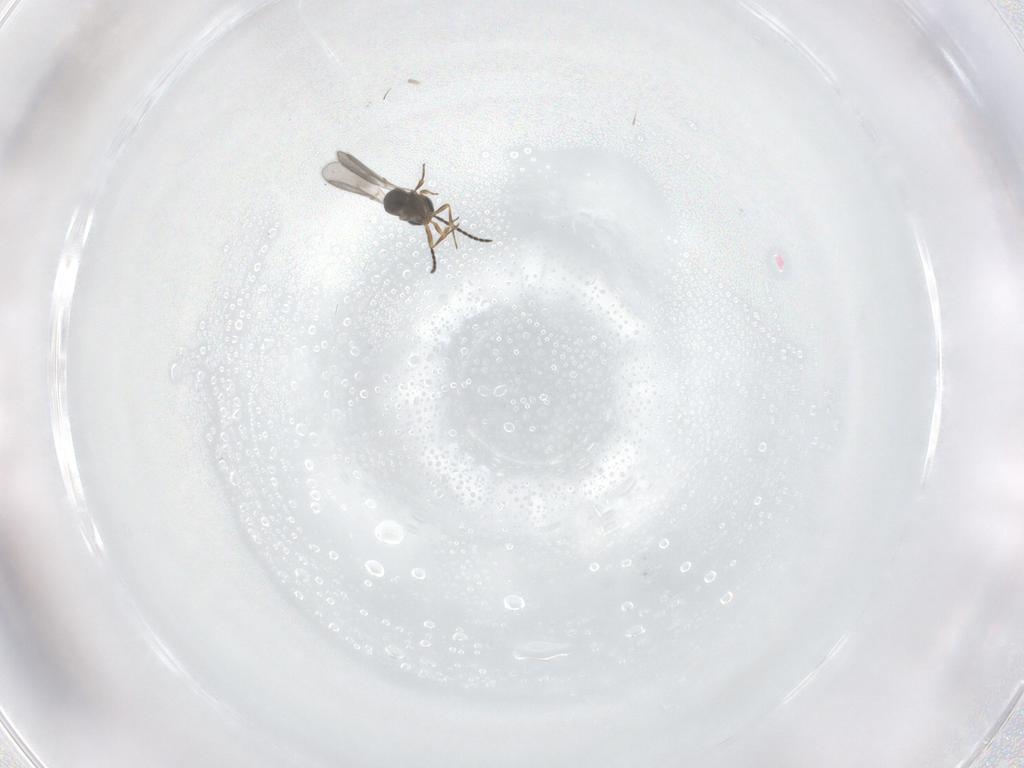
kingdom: Animalia
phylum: Arthropoda
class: Insecta
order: Hymenoptera
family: Scelionidae
